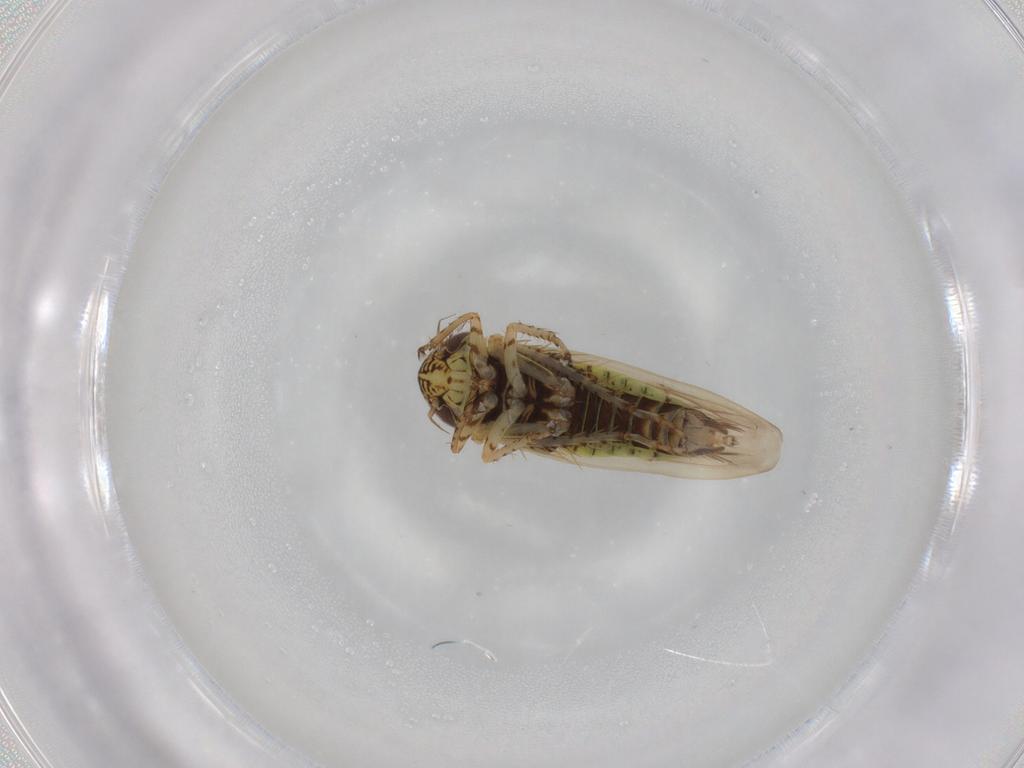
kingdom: Animalia
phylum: Arthropoda
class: Insecta
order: Hemiptera
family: Cicadellidae
